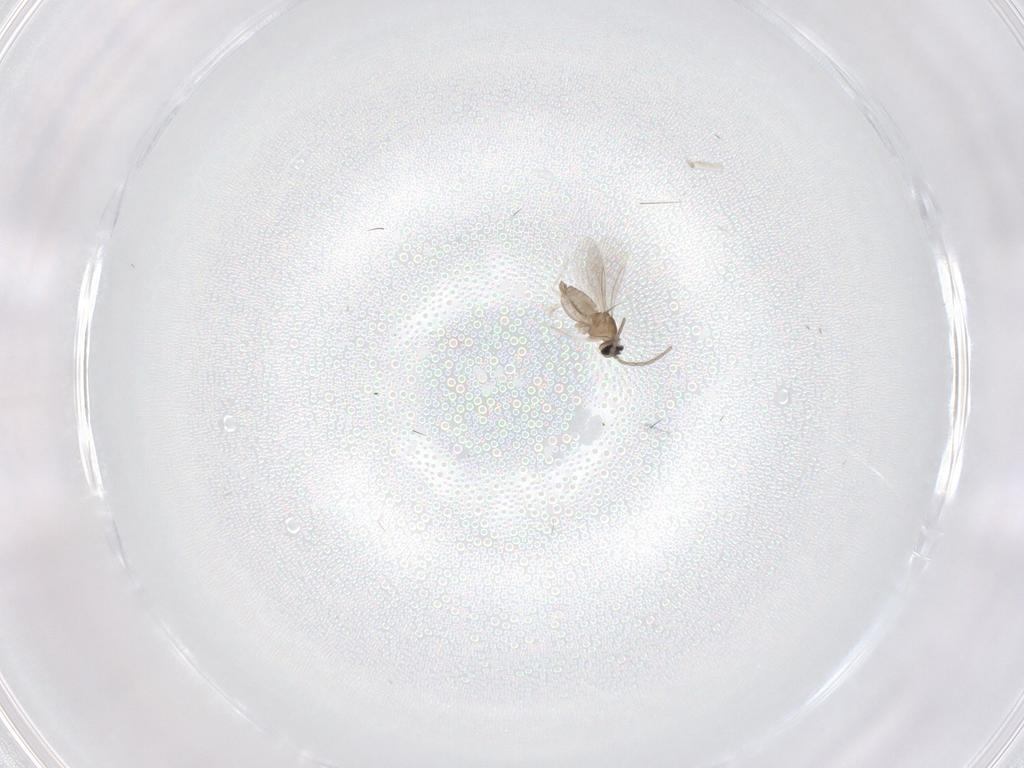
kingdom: Animalia
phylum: Arthropoda
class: Insecta
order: Diptera
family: Cecidomyiidae
